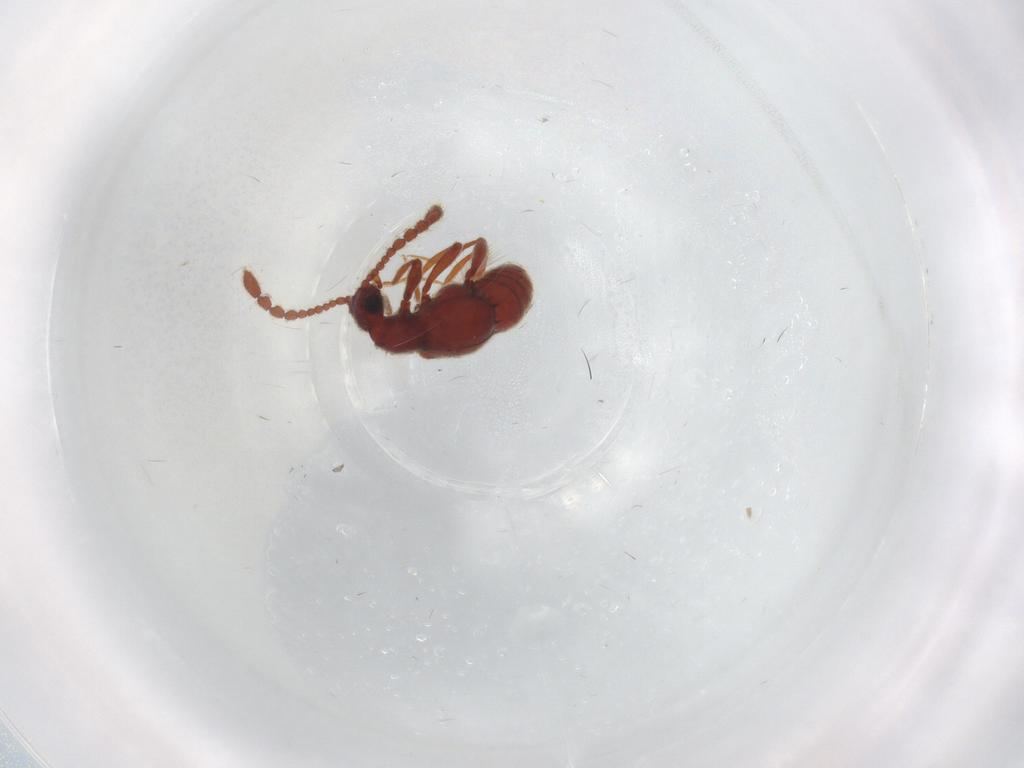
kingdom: Animalia
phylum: Arthropoda
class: Insecta
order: Coleoptera
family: Staphylinidae
